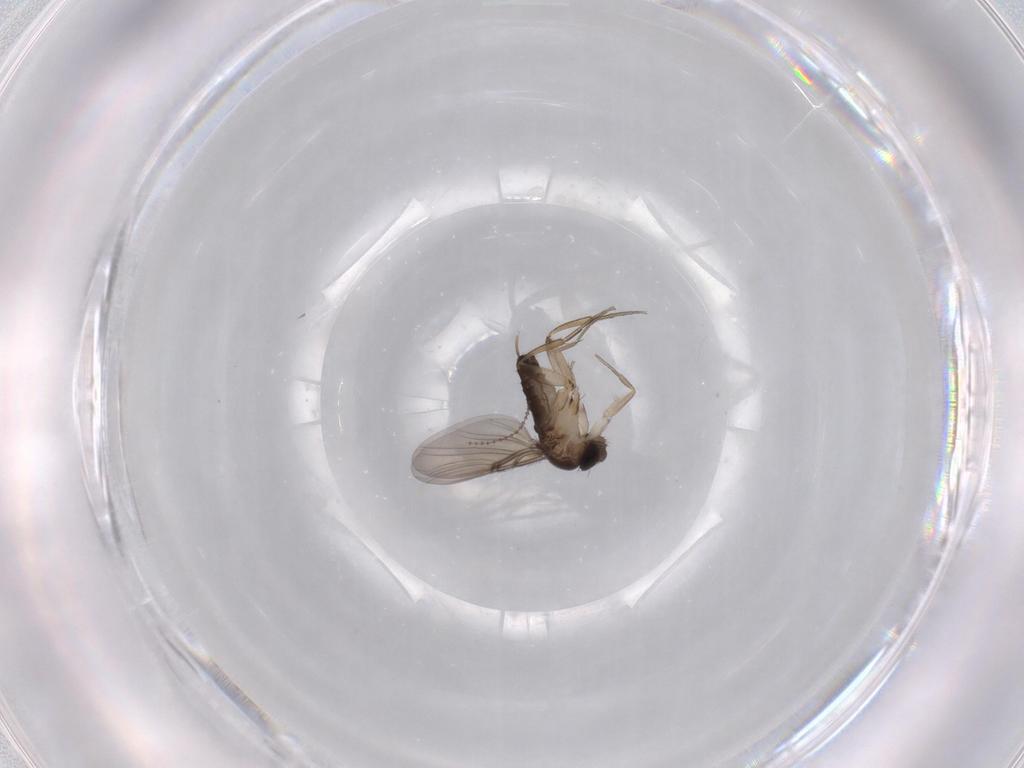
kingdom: Animalia
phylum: Arthropoda
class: Insecta
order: Diptera
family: Phoridae
